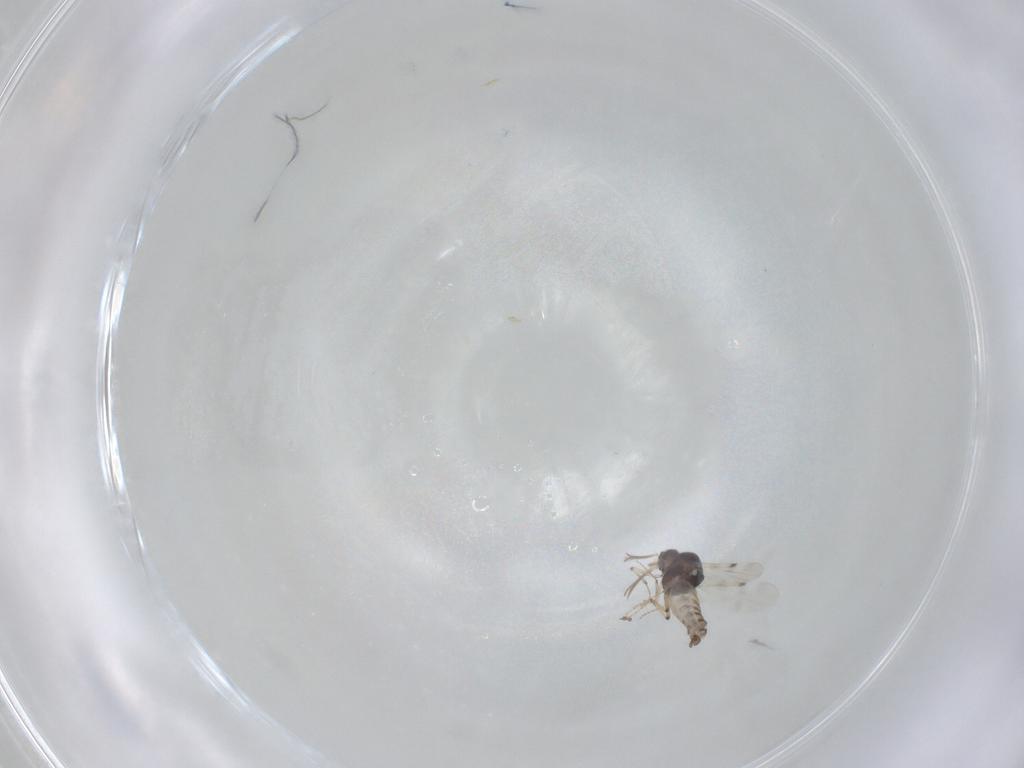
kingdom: Animalia
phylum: Arthropoda
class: Insecta
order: Diptera
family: Cecidomyiidae
